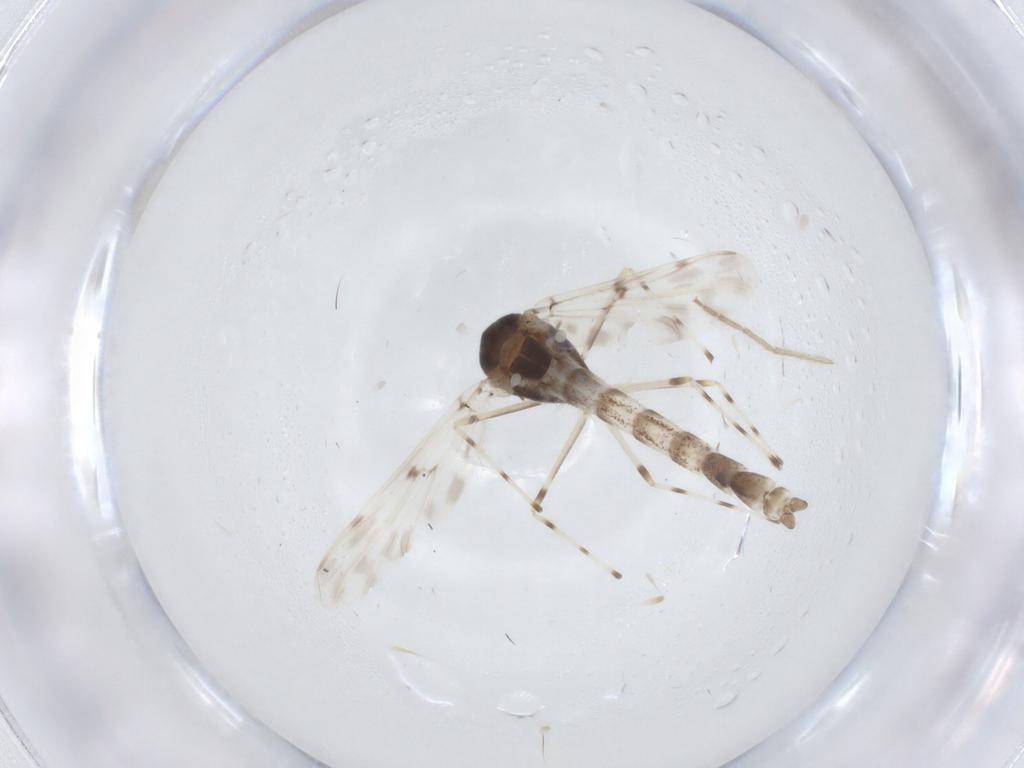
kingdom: Animalia
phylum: Arthropoda
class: Insecta
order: Diptera
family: Chironomidae
